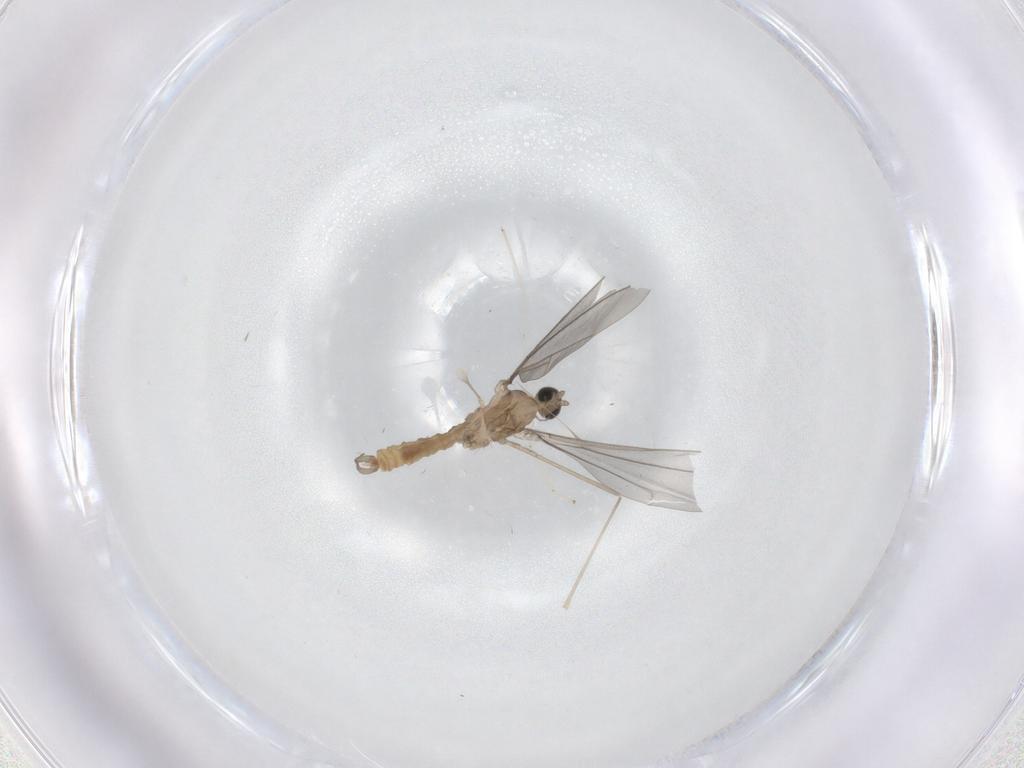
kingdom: Animalia
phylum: Arthropoda
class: Insecta
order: Diptera
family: Cecidomyiidae
